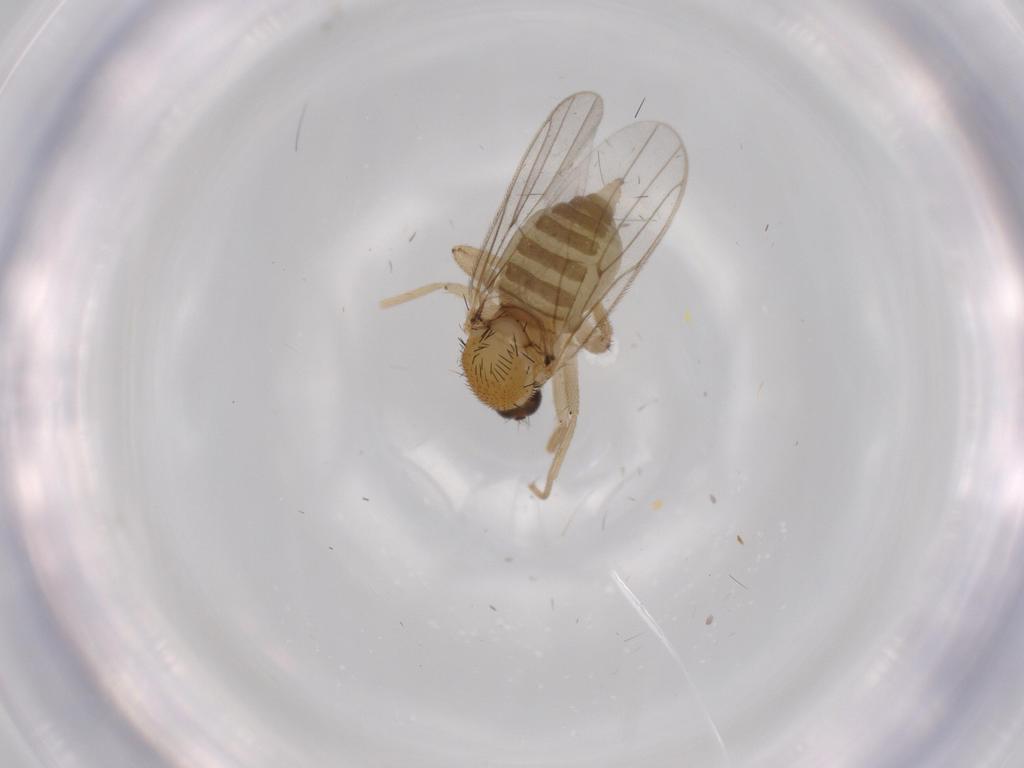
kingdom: Animalia
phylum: Arthropoda
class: Insecta
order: Diptera
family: Hybotidae
